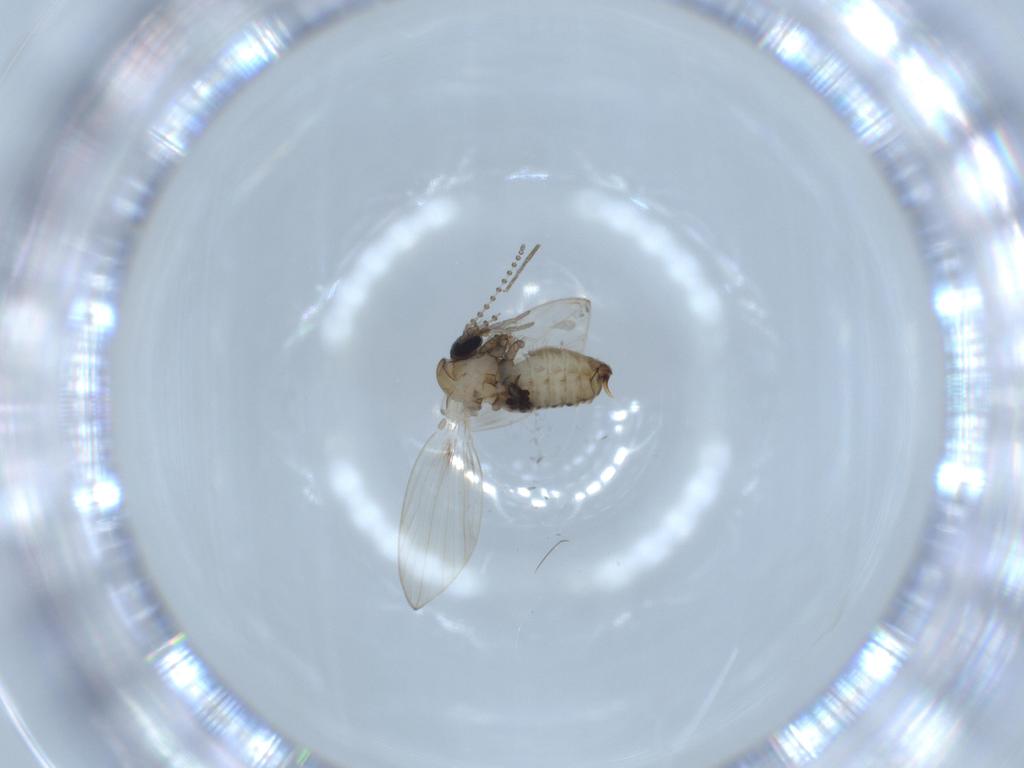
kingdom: Animalia
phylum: Arthropoda
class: Insecta
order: Diptera
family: Psychodidae
